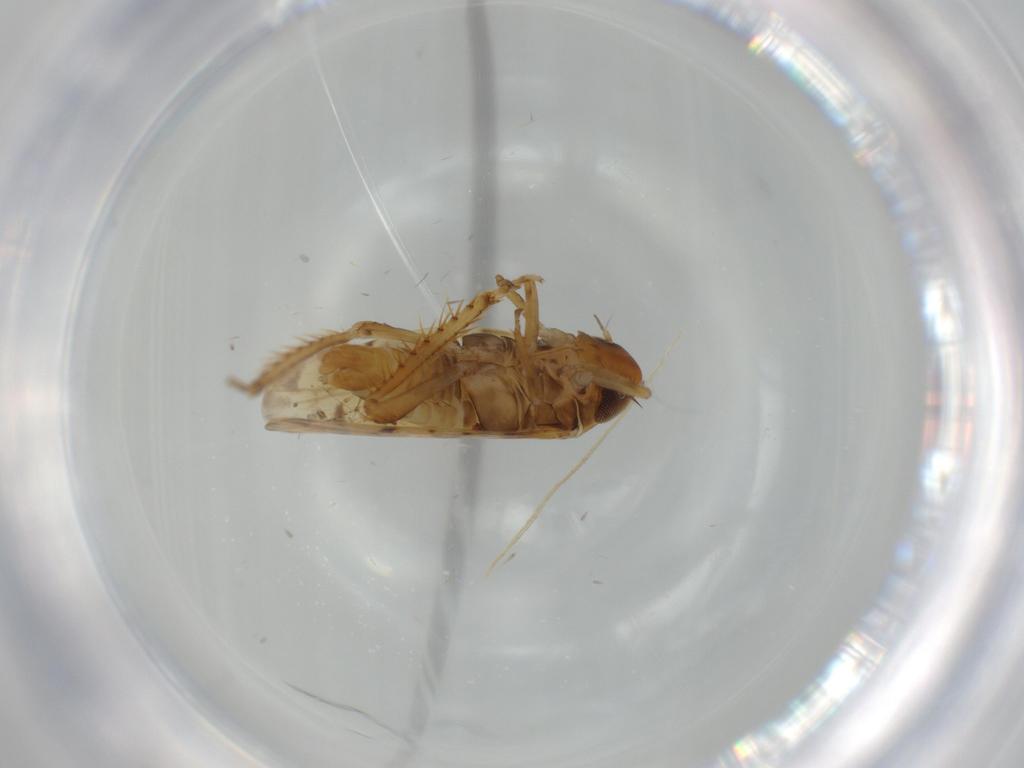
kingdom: Animalia
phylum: Arthropoda
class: Insecta
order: Hemiptera
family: Cicadellidae
